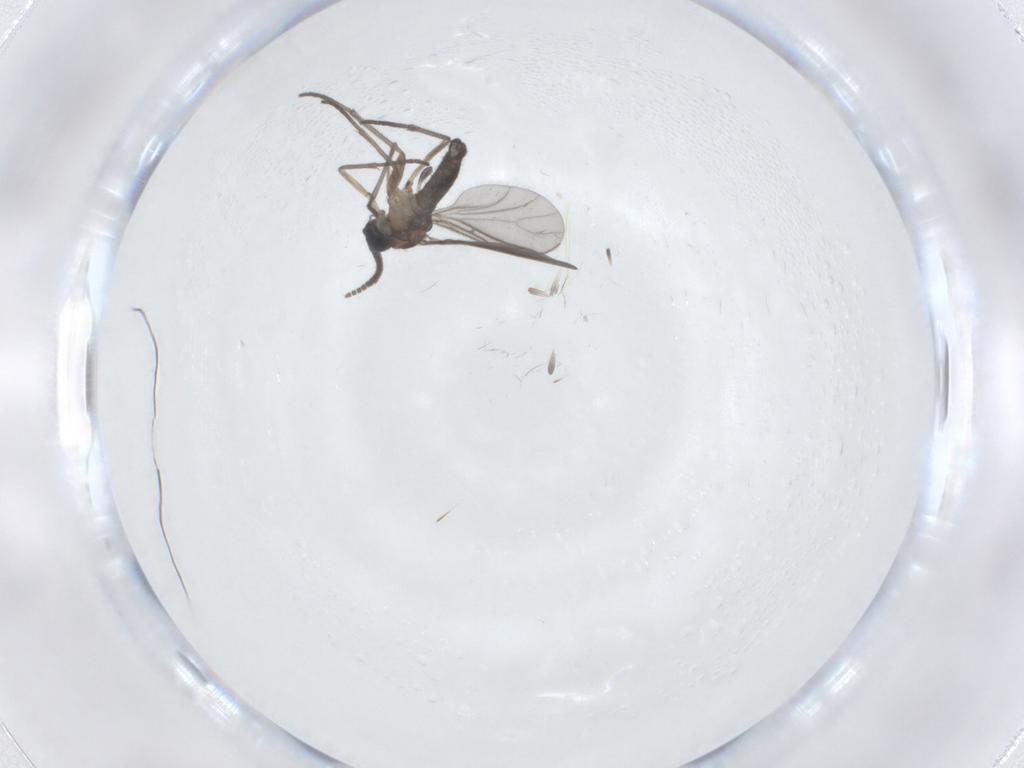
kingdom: Animalia
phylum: Arthropoda
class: Insecta
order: Diptera
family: Sciaridae
